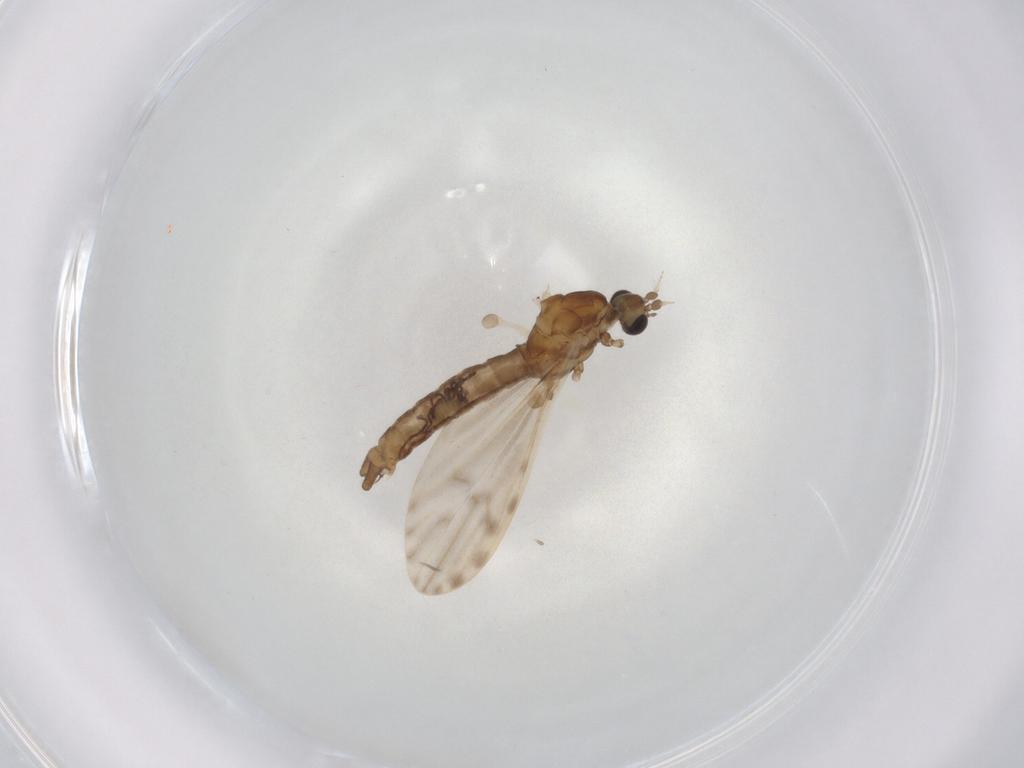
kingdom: Animalia
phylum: Arthropoda
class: Insecta
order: Diptera
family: Limoniidae
